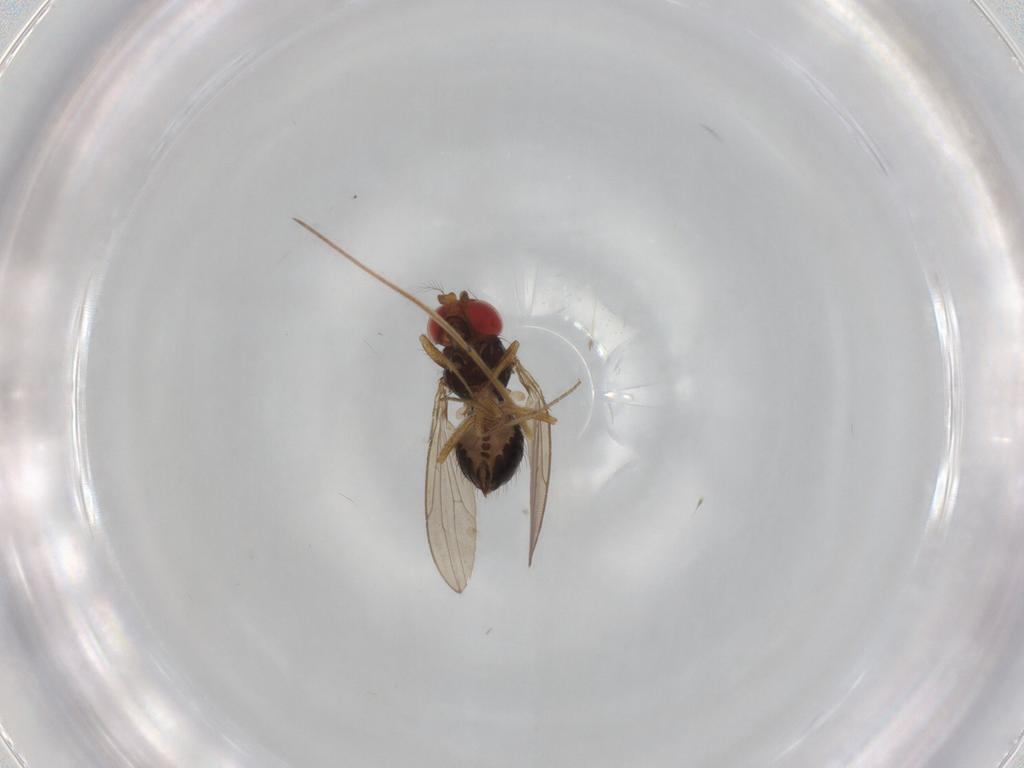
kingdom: Animalia
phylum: Arthropoda
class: Insecta
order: Diptera
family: Drosophilidae
